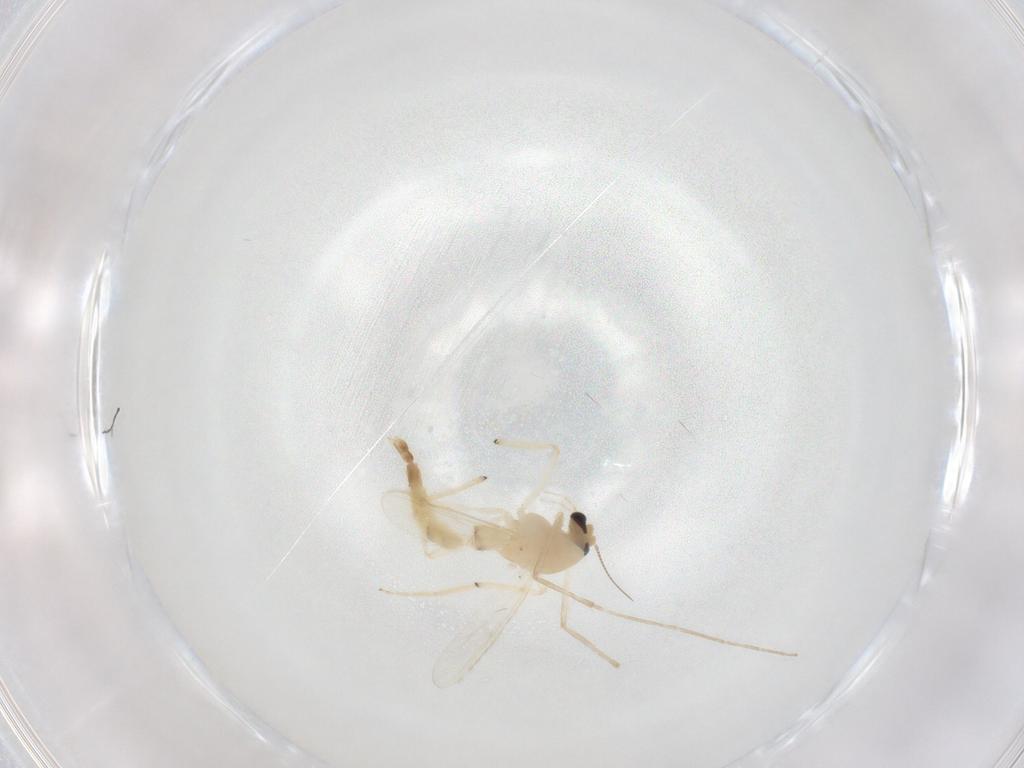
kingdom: Animalia
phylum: Arthropoda
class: Insecta
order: Diptera
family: Chironomidae
